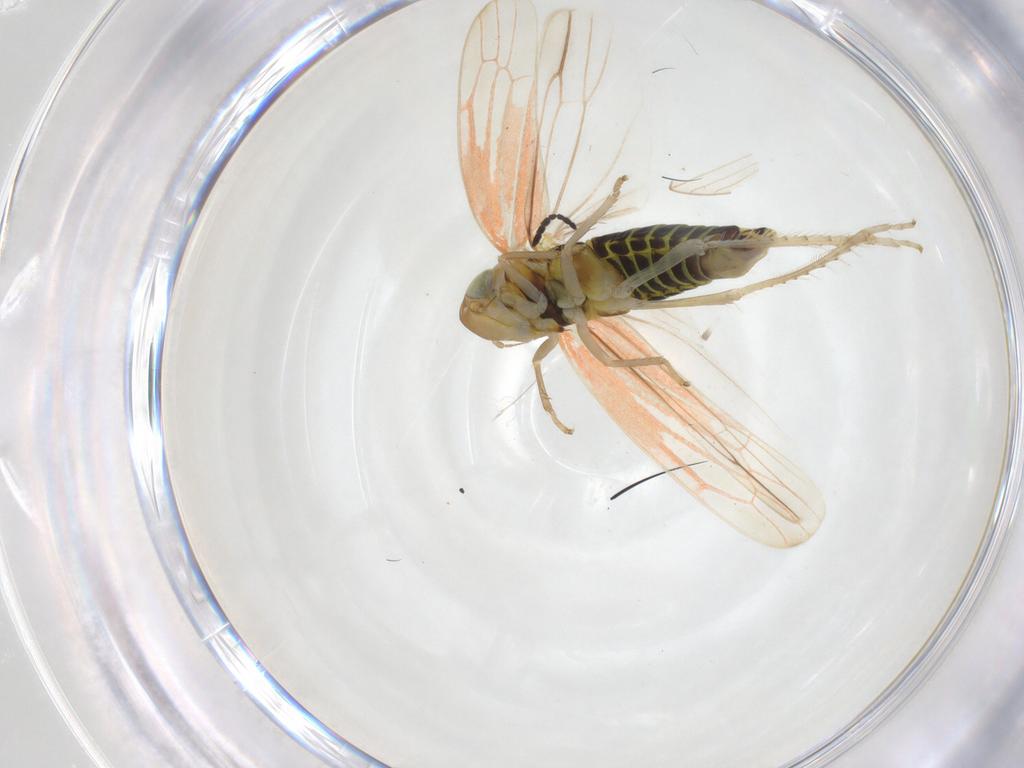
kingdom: Animalia
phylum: Arthropoda
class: Insecta
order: Hemiptera
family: Cicadellidae
